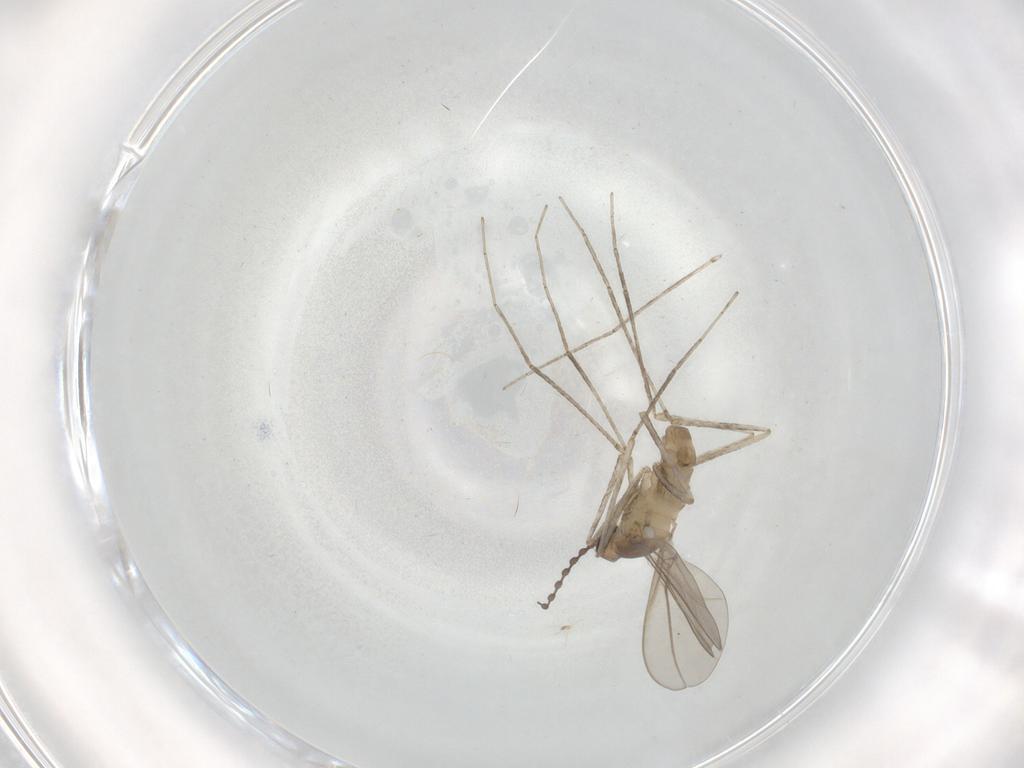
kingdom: Animalia
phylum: Arthropoda
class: Insecta
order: Diptera
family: Cecidomyiidae
